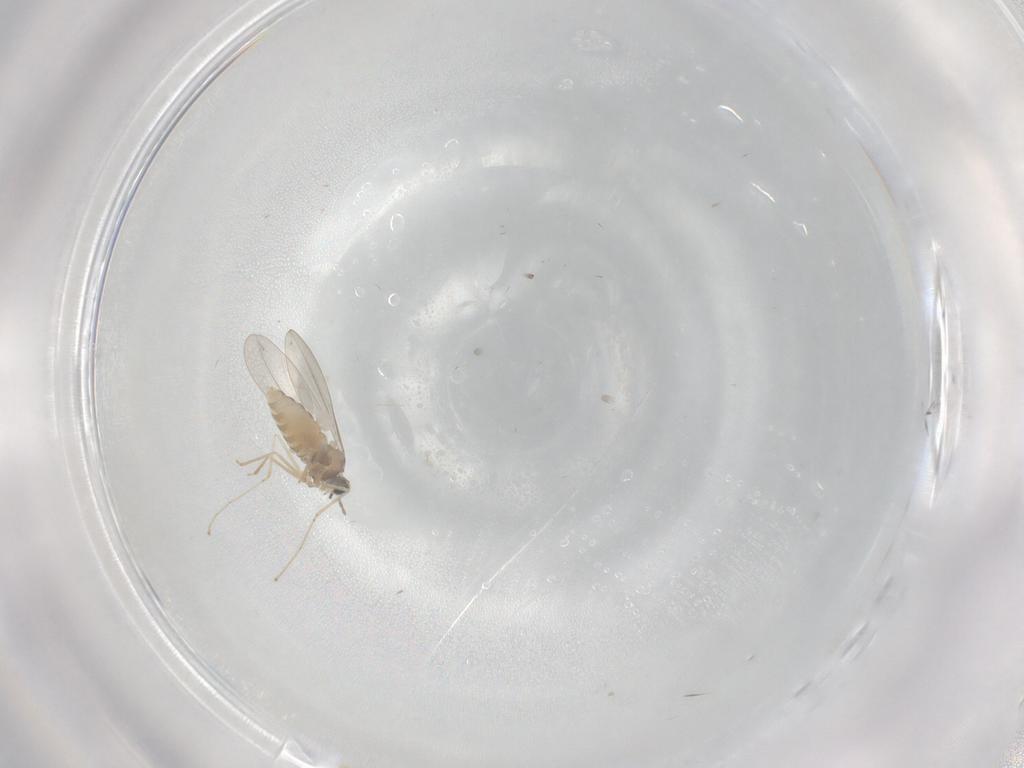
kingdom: Animalia
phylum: Arthropoda
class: Insecta
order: Diptera
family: Cecidomyiidae
